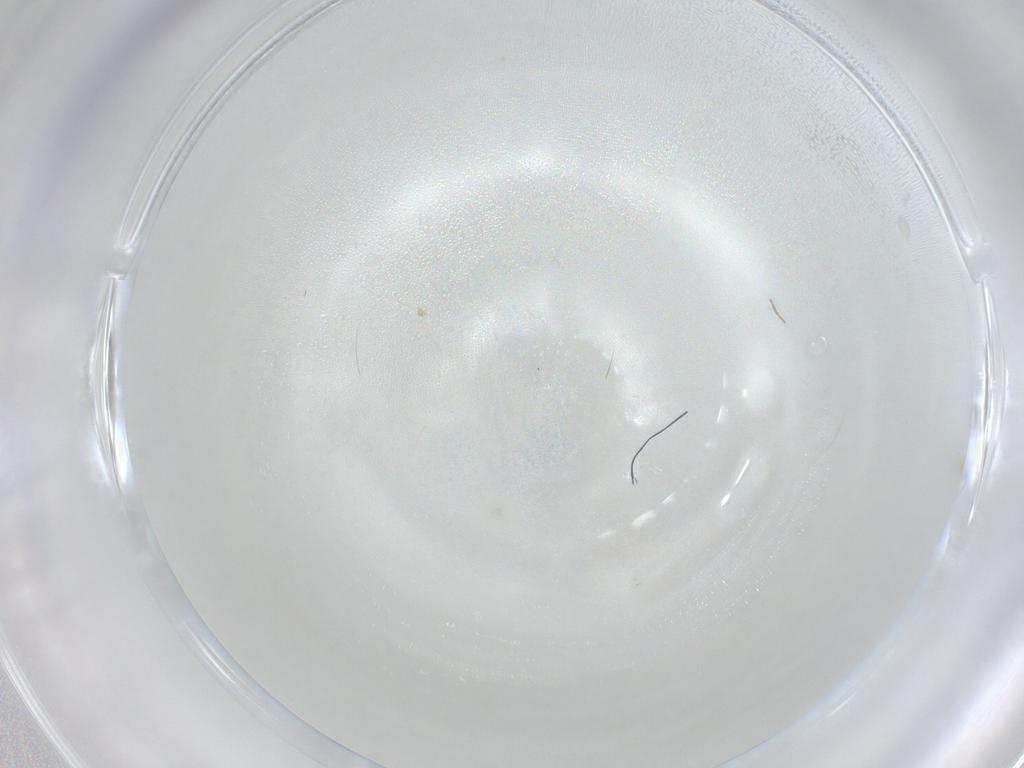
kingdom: Animalia
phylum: Arthropoda
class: Insecta
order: Diptera
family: Cecidomyiidae
